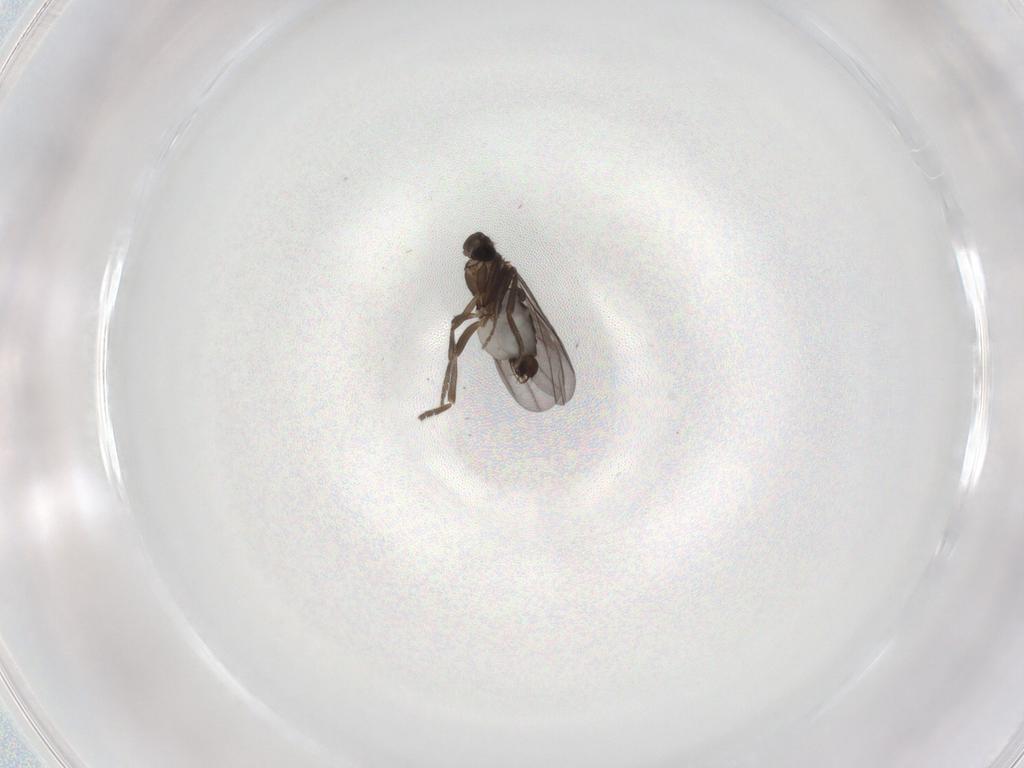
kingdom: Animalia
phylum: Arthropoda
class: Insecta
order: Diptera
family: Phoridae
